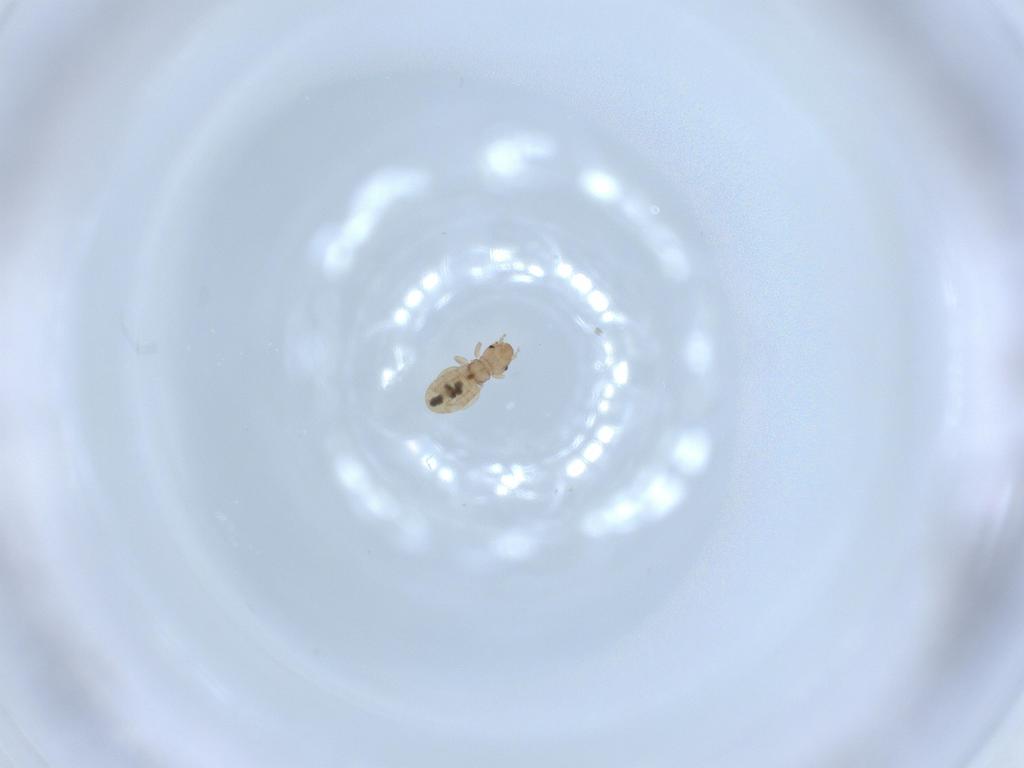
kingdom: Animalia
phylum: Arthropoda
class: Insecta
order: Psocodea
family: Liposcelididae
